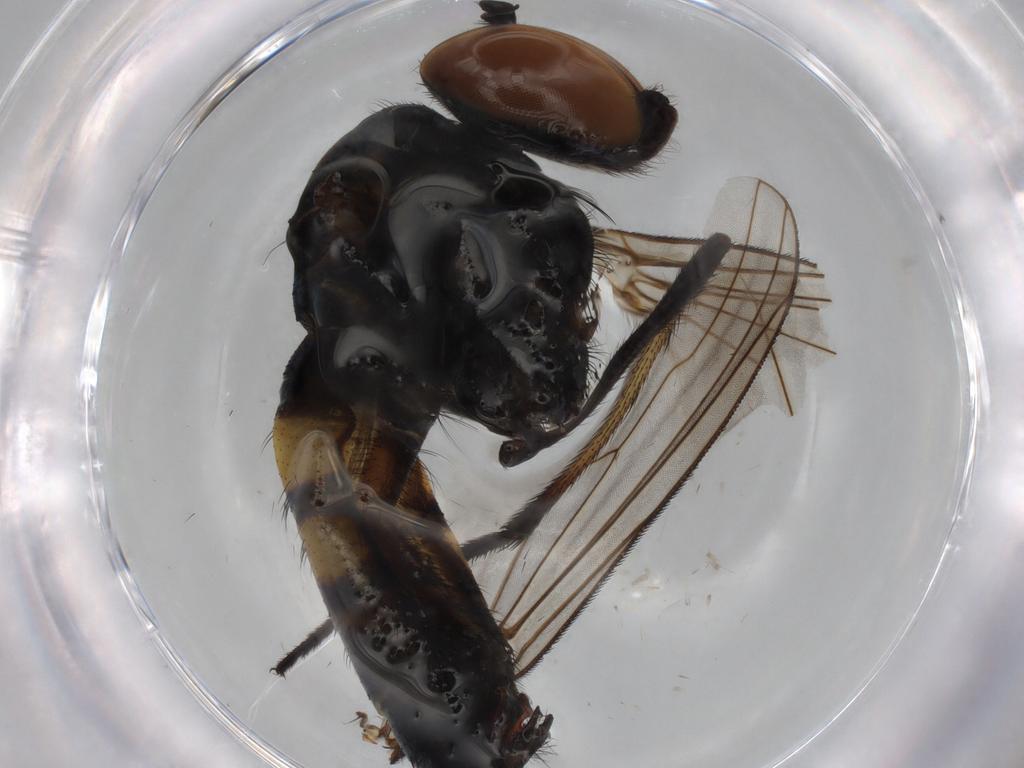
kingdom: Animalia
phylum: Arthropoda
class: Insecta
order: Diptera
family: Dolichopodidae
